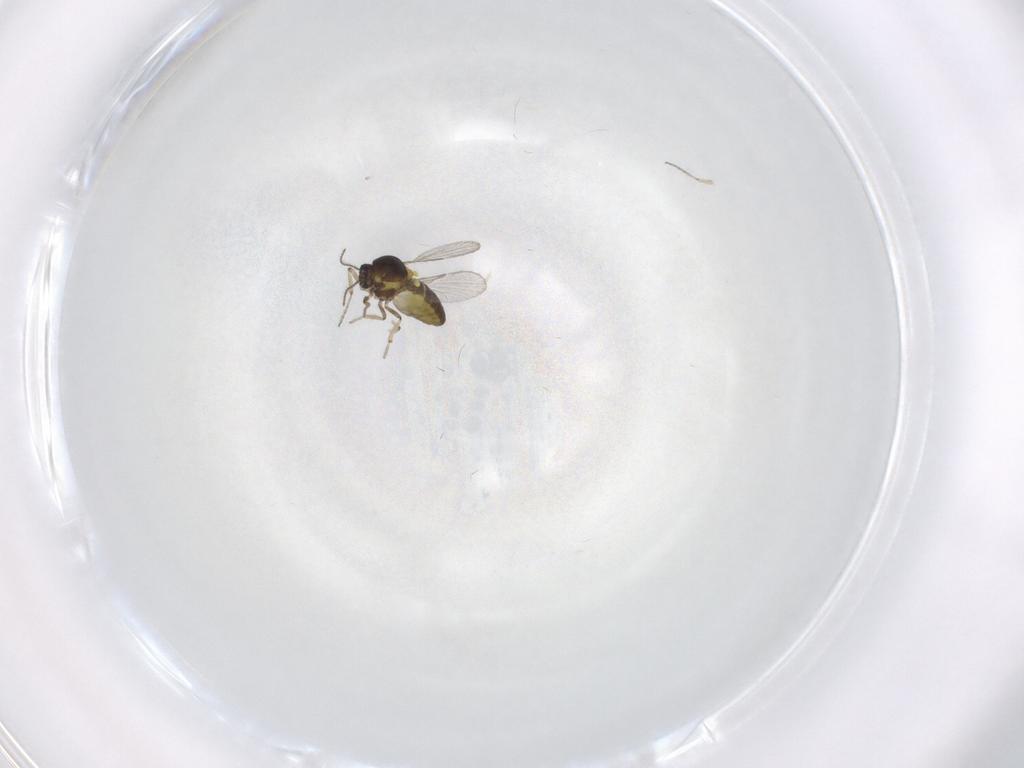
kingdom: Animalia
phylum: Arthropoda
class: Insecta
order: Diptera
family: Ceratopogonidae
